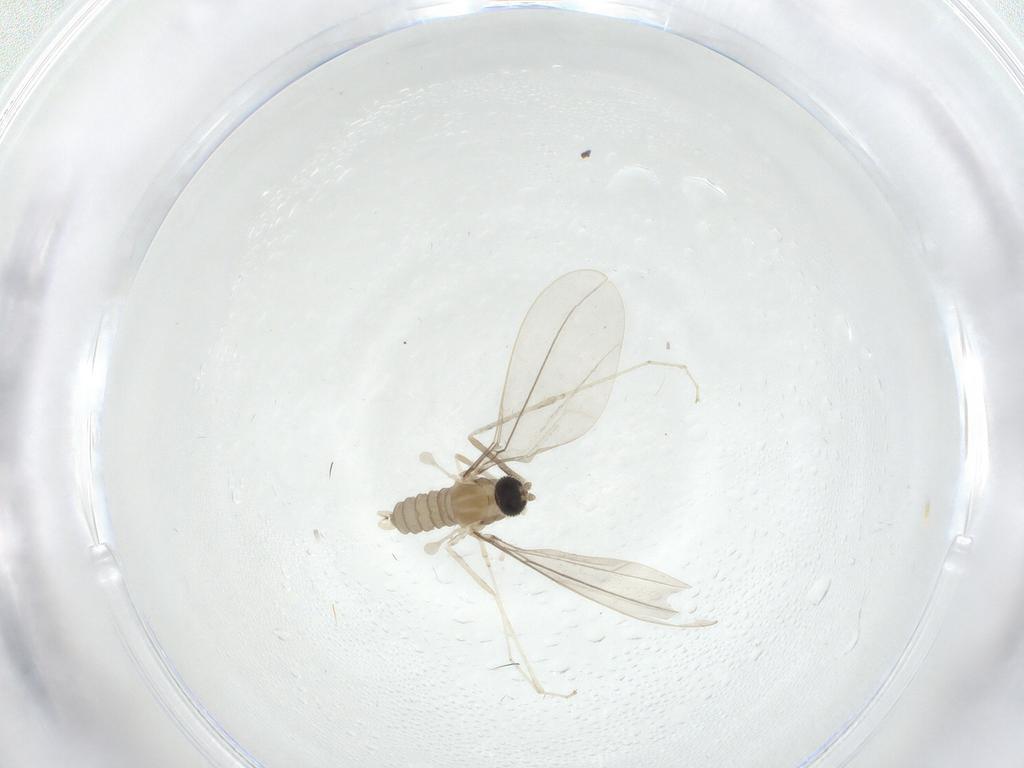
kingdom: Animalia
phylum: Arthropoda
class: Insecta
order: Diptera
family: Cecidomyiidae
